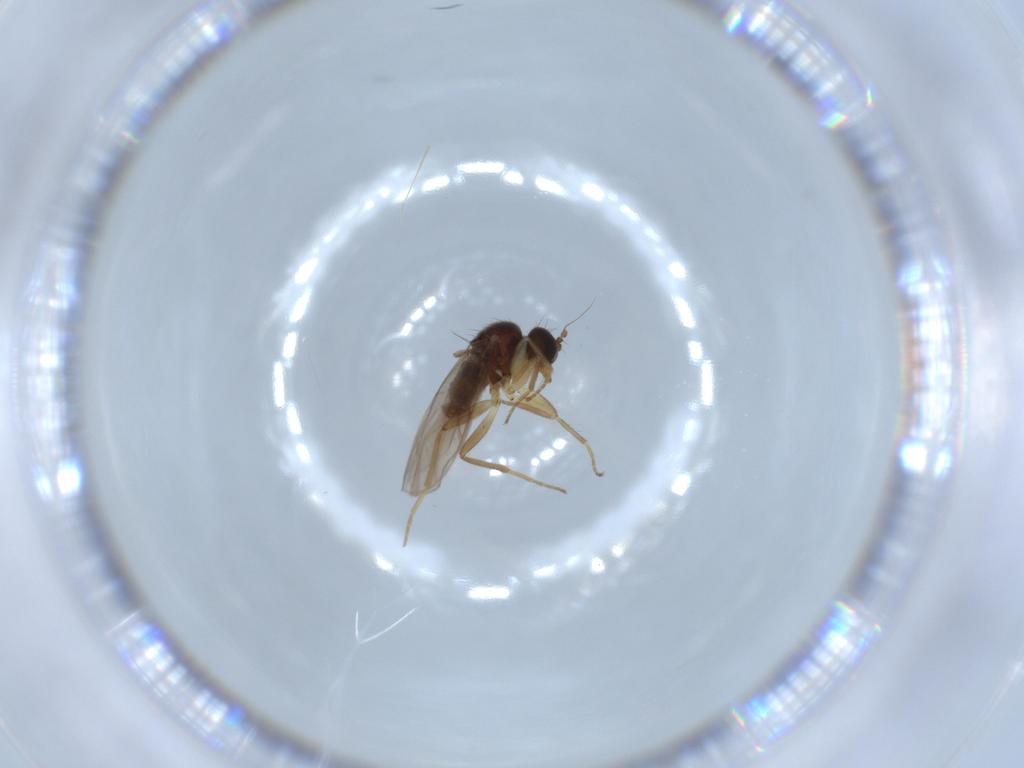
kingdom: Animalia
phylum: Arthropoda
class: Insecta
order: Diptera
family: Hybotidae
